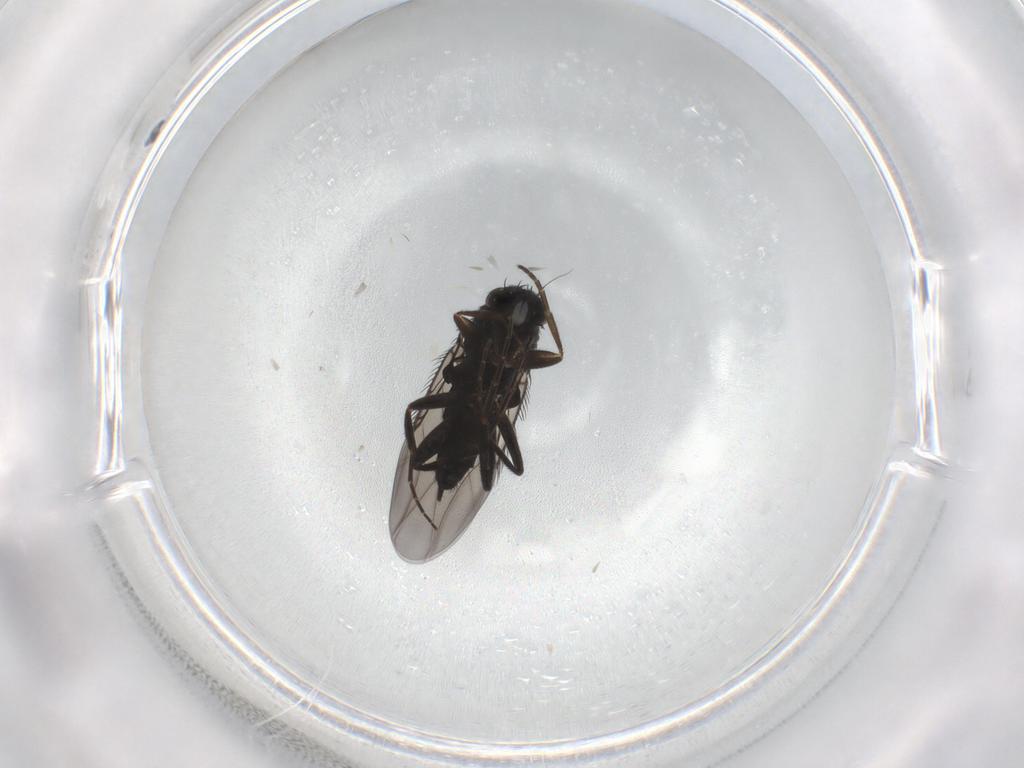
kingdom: Animalia
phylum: Arthropoda
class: Insecta
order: Diptera
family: Phoridae
